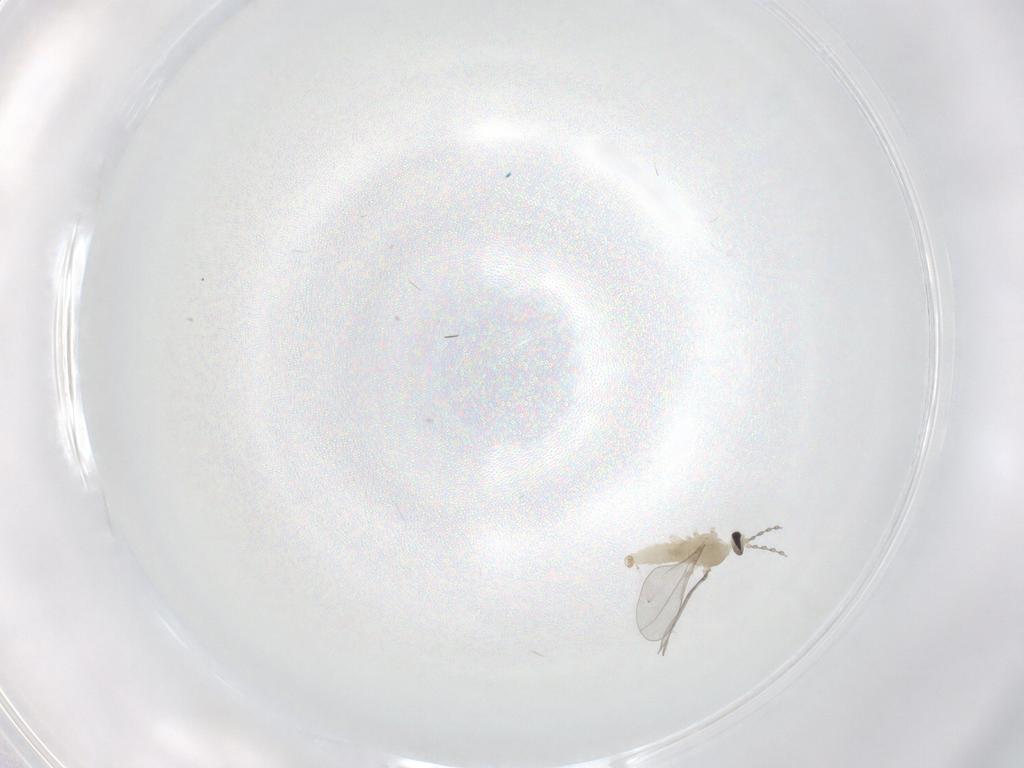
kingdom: Animalia
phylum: Arthropoda
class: Insecta
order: Diptera
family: Cecidomyiidae
